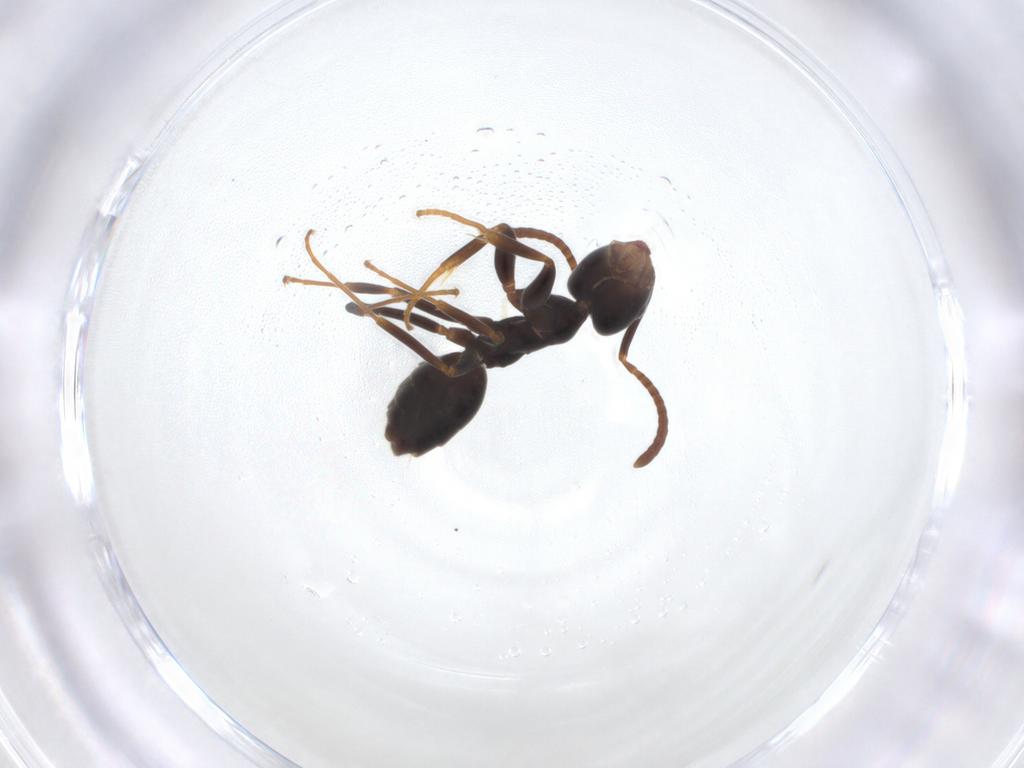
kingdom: Animalia
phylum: Arthropoda
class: Insecta
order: Hymenoptera
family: Formicidae
